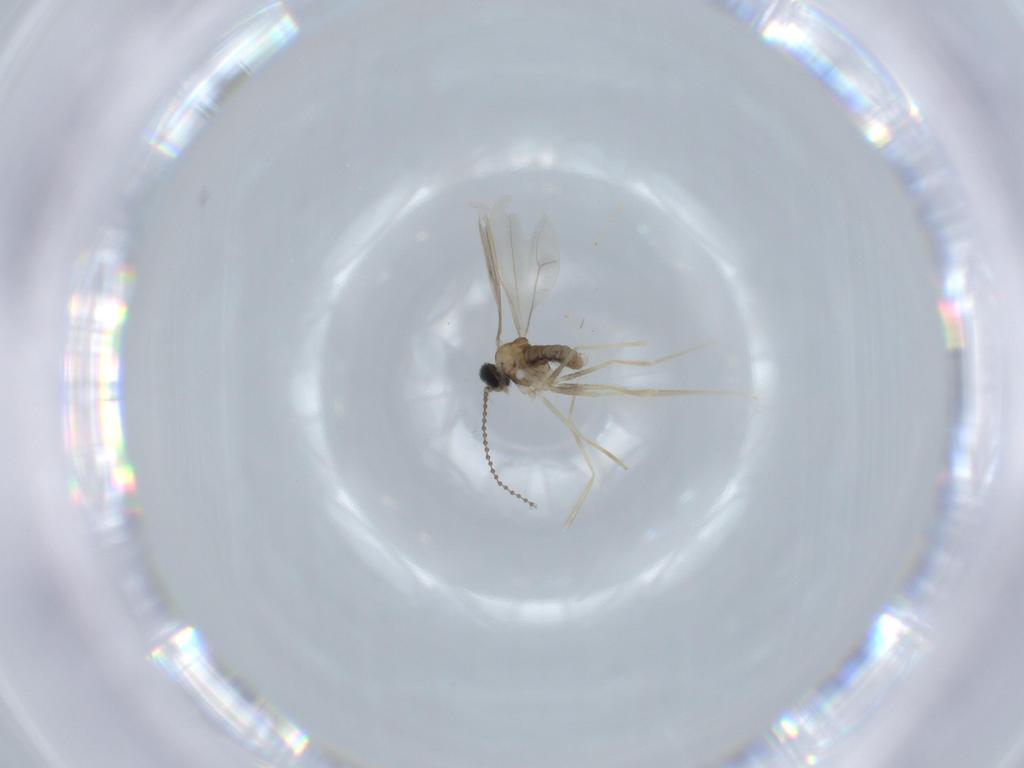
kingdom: Animalia
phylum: Arthropoda
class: Insecta
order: Diptera
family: Cecidomyiidae
